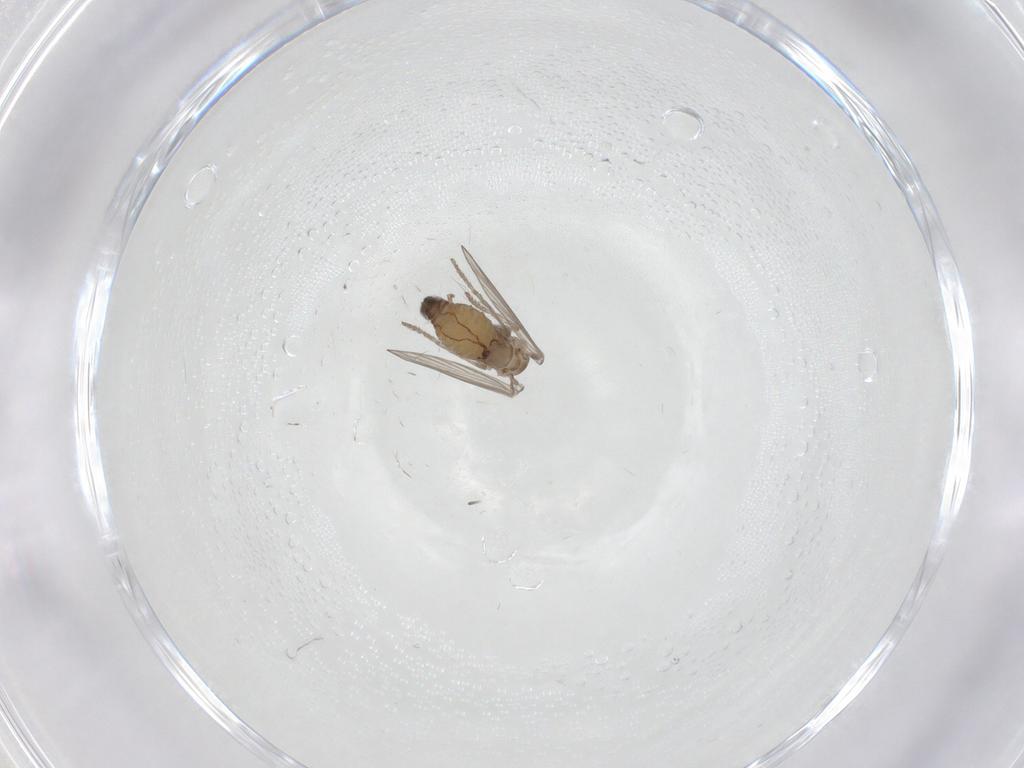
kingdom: Animalia
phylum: Arthropoda
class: Insecta
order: Diptera
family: Psychodidae
